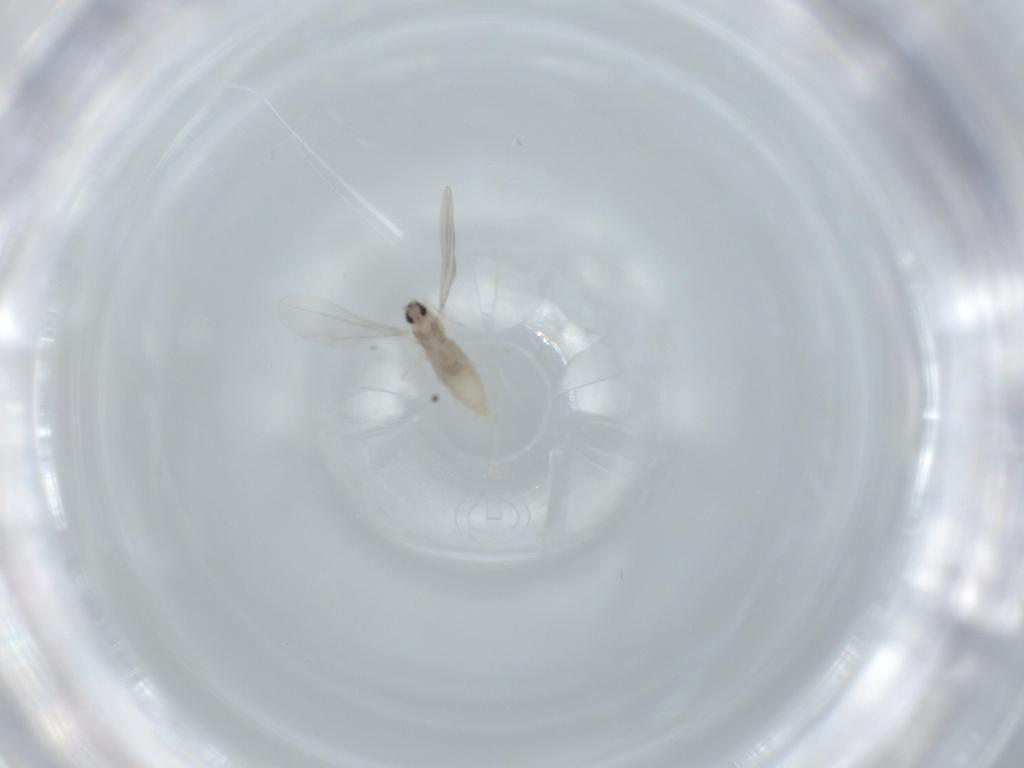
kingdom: Animalia
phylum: Arthropoda
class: Insecta
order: Diptera
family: Cecidomyiidae
